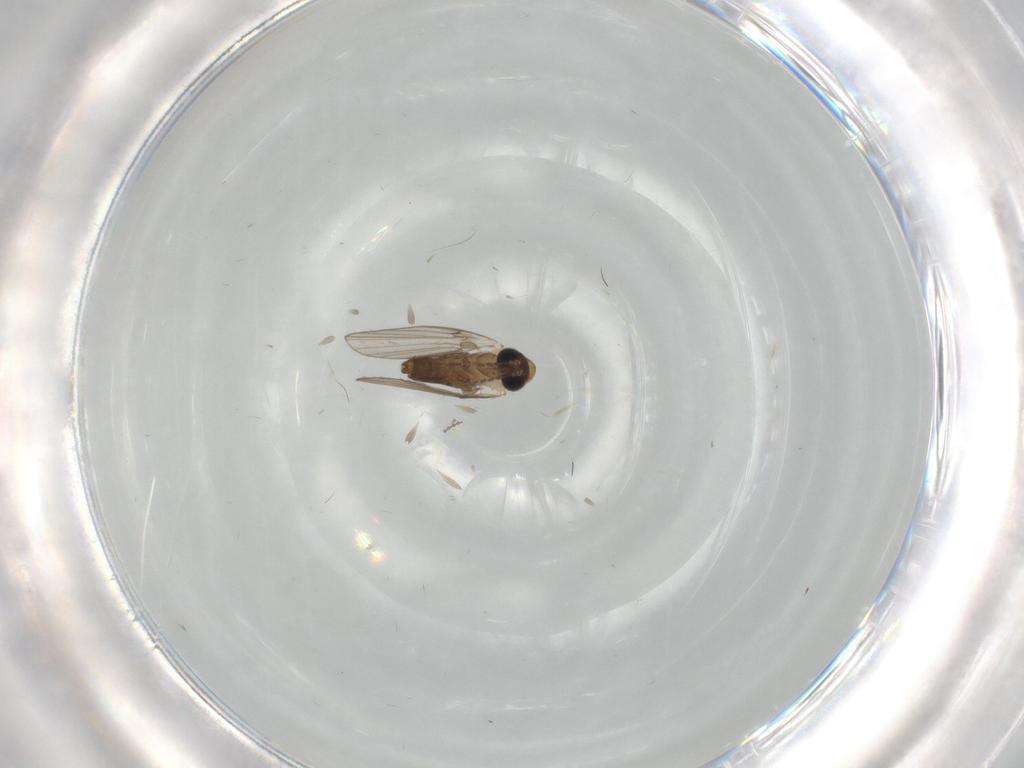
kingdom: Animalia
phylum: Arthropoda
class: Insecta
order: Diptera
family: Psychodidae
